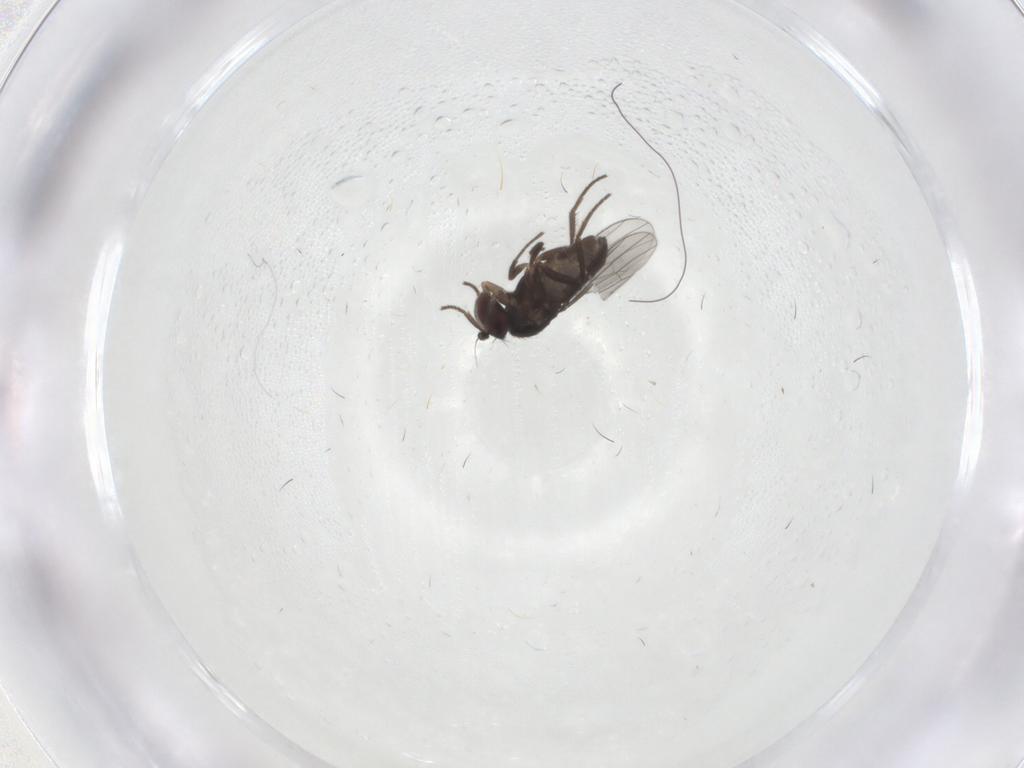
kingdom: Animalia
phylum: Arthropoda
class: Insecta
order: Diptera
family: Dolichopodidae
